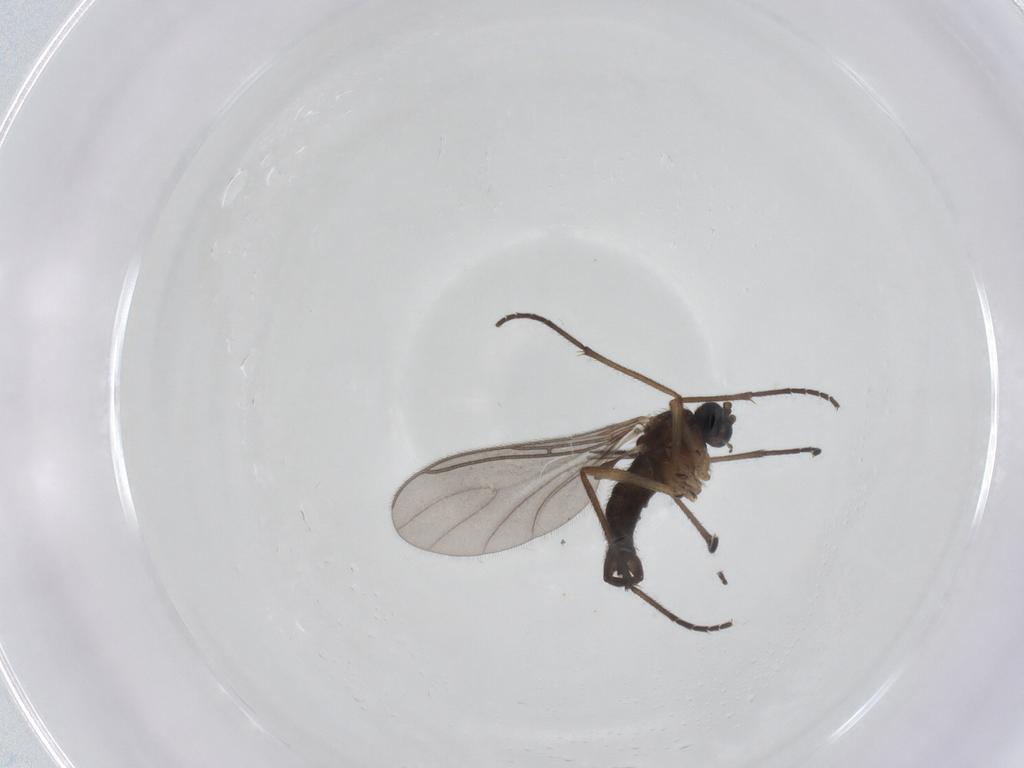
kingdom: Animalia
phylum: Arthropoda
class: Insecta
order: Diptera
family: Sciaridae
